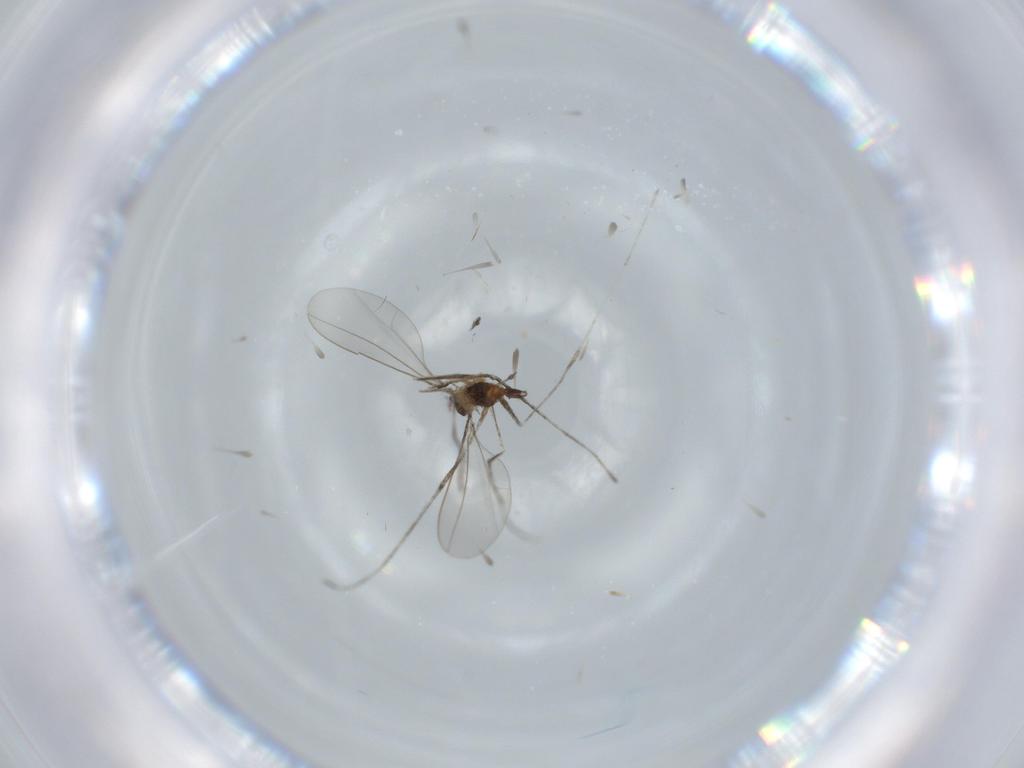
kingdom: Animalia
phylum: Arthropoda
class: Insecta
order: Diptera
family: Cecidomyiidae
